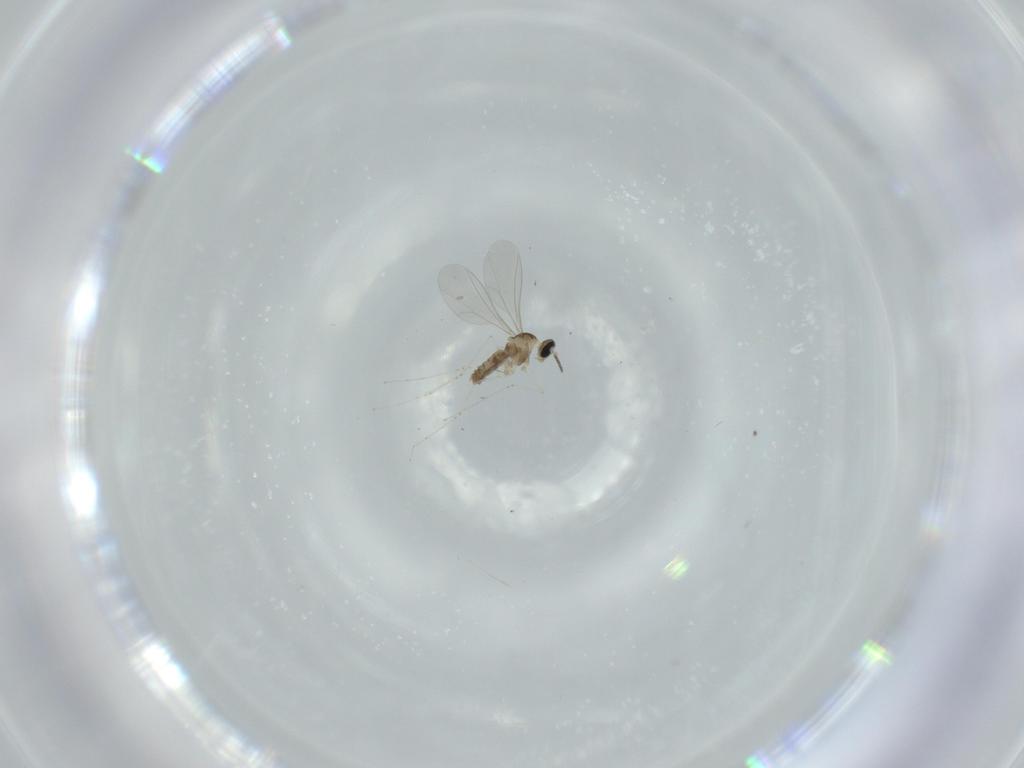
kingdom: Animalia
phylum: Arthropoda
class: Insecta
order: Diptera
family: Cecidomyiidae
